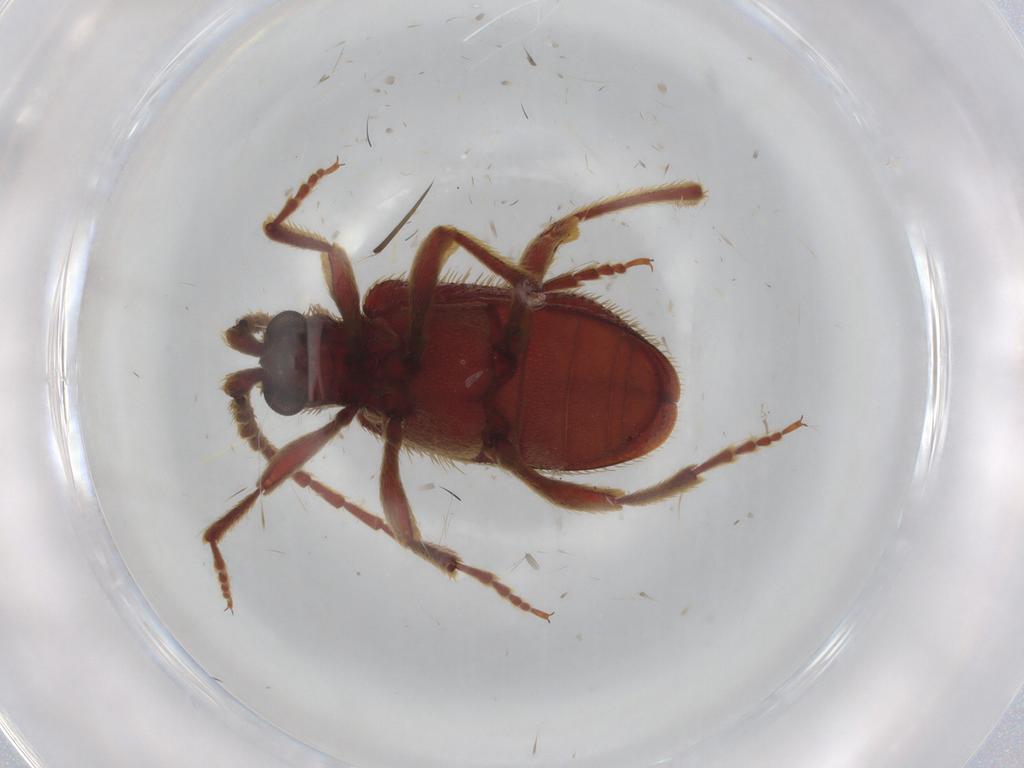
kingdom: Animalia
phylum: Arthropoda
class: Insecta
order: Coleoptera
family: Ptinidae
